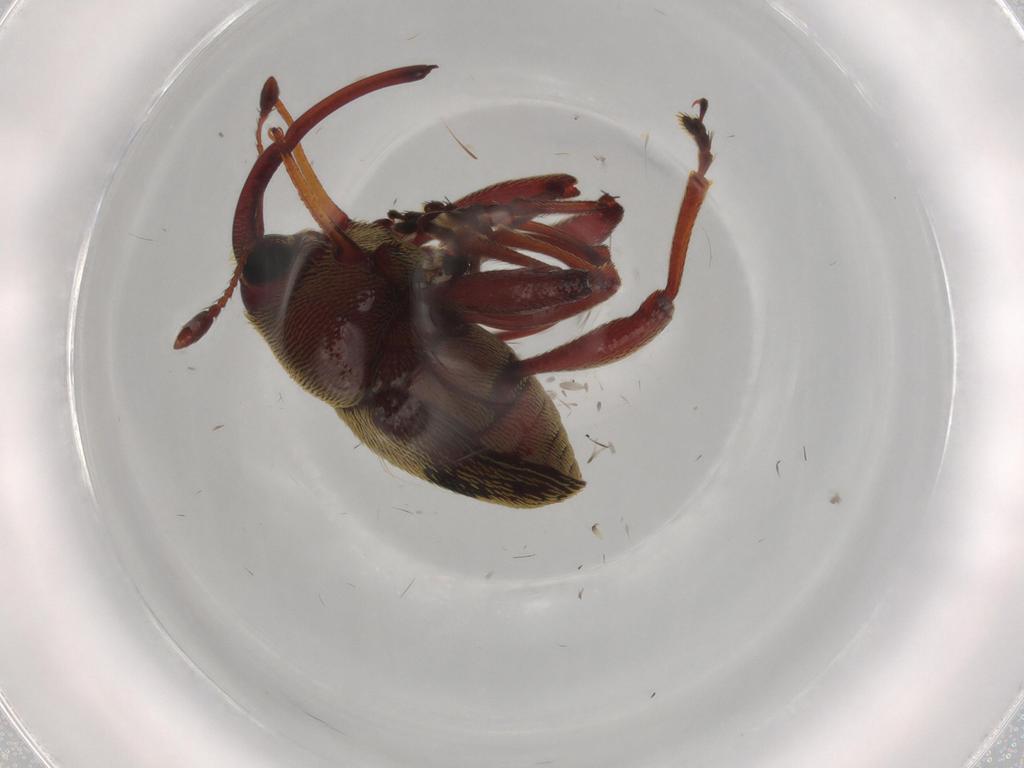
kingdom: Animalia
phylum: Arthropoda
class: Insecta
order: Coleoptera
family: Curculionidae
